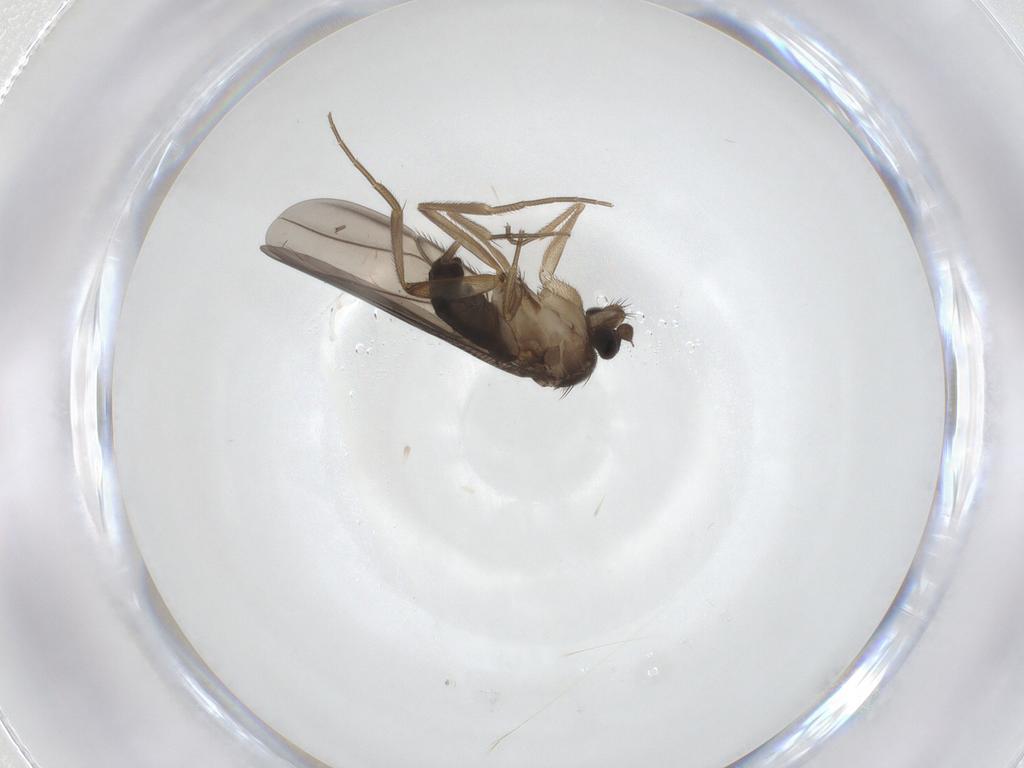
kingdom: Animalia
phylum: Arthropoda
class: Insecta
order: Diptera
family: Phoridae
